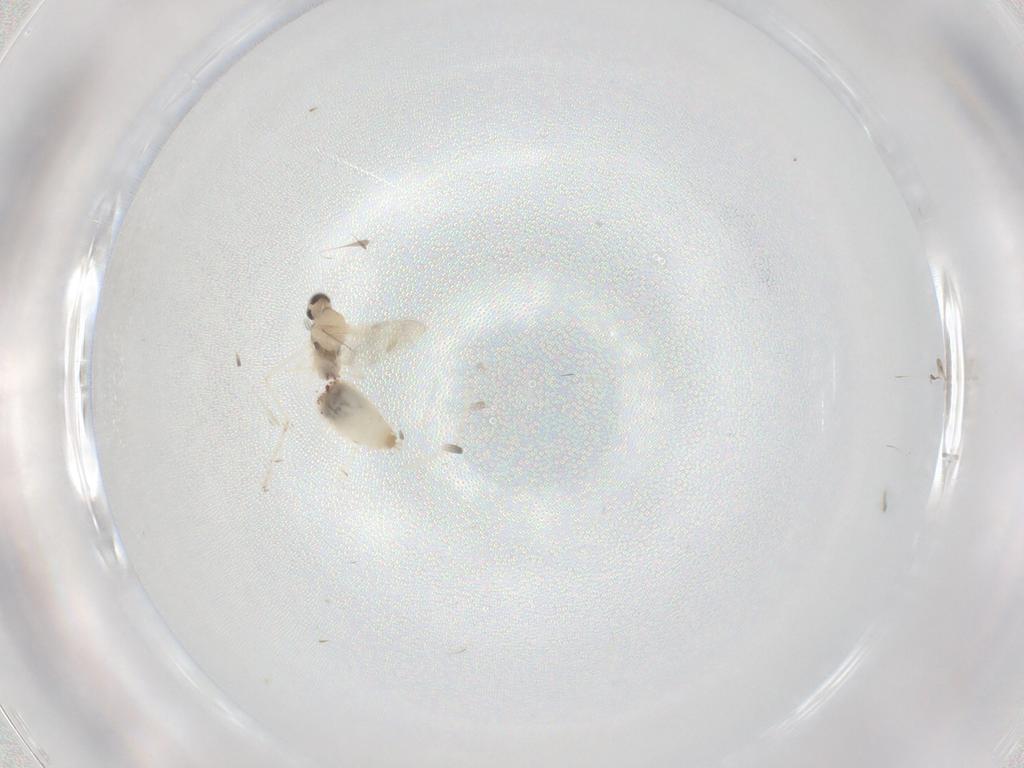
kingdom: Animalia
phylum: Arthropoda
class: Insecta
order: Diptera
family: Cecidomyiidae
